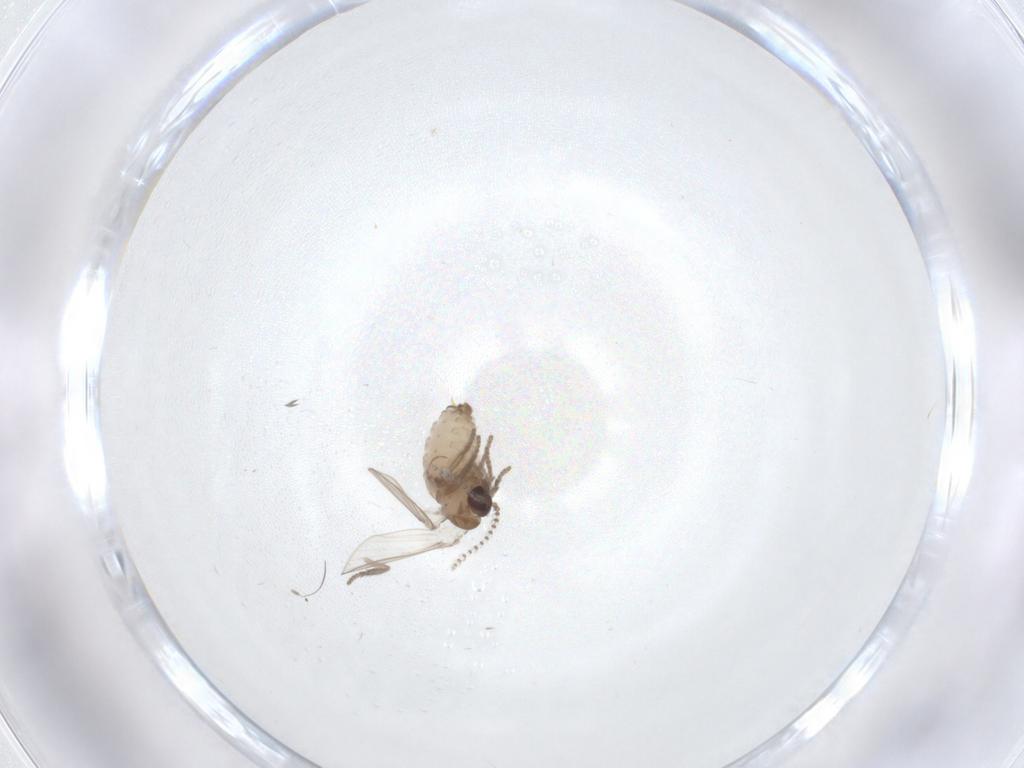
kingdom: Animalia
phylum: Arthropoda
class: Insecta
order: Diptera
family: Psychodidae
